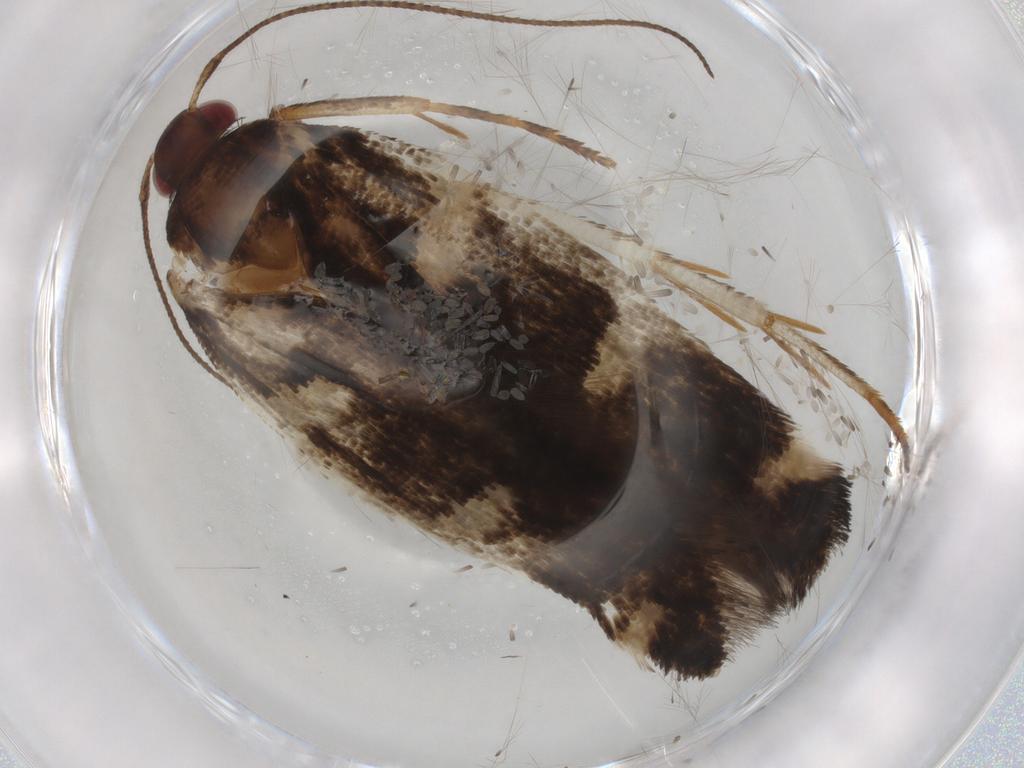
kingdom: Animalia
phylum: Arthropoda
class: Insecta
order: Lepidoptera
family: Cosmopterigidae
